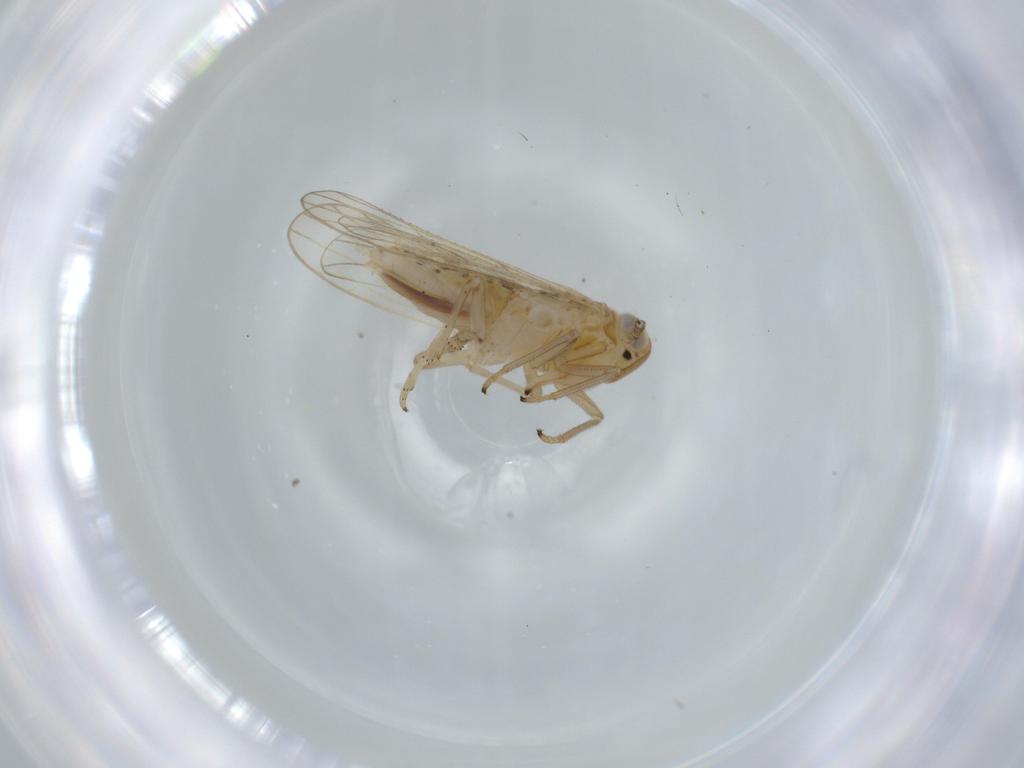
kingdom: Animalia
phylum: Arthropoda
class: Insecta
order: Hemiptera
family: Delphacidae
